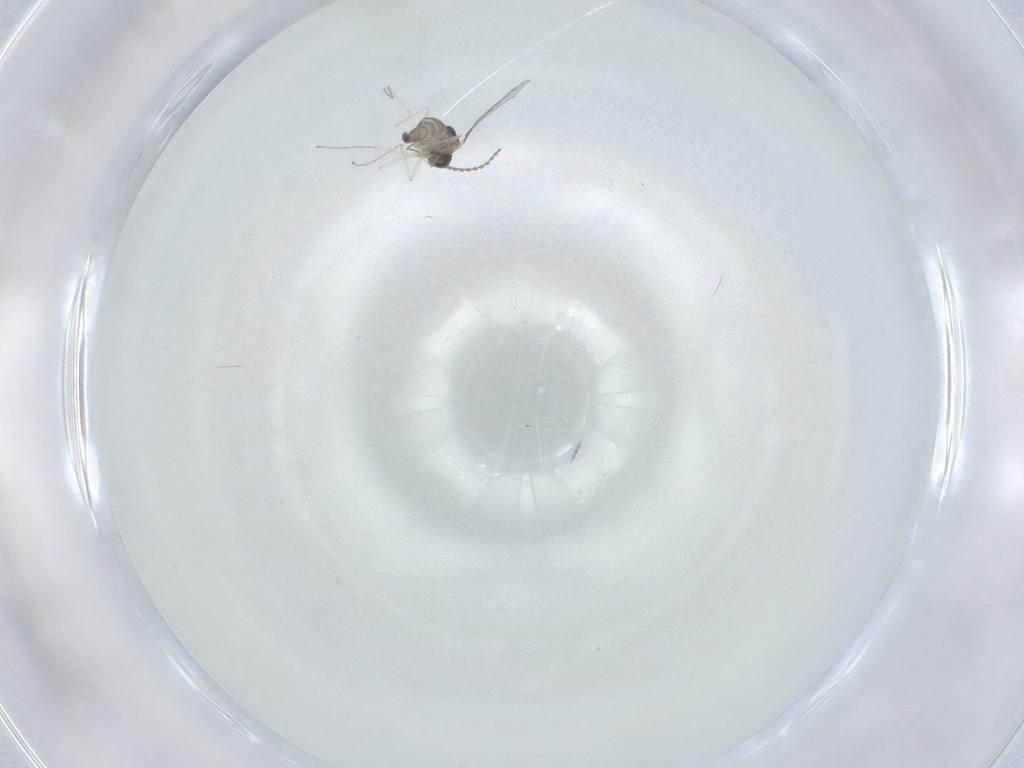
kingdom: Animalia
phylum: Arthropoda
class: Insecta
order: Diptera
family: Cecidomyiidae
